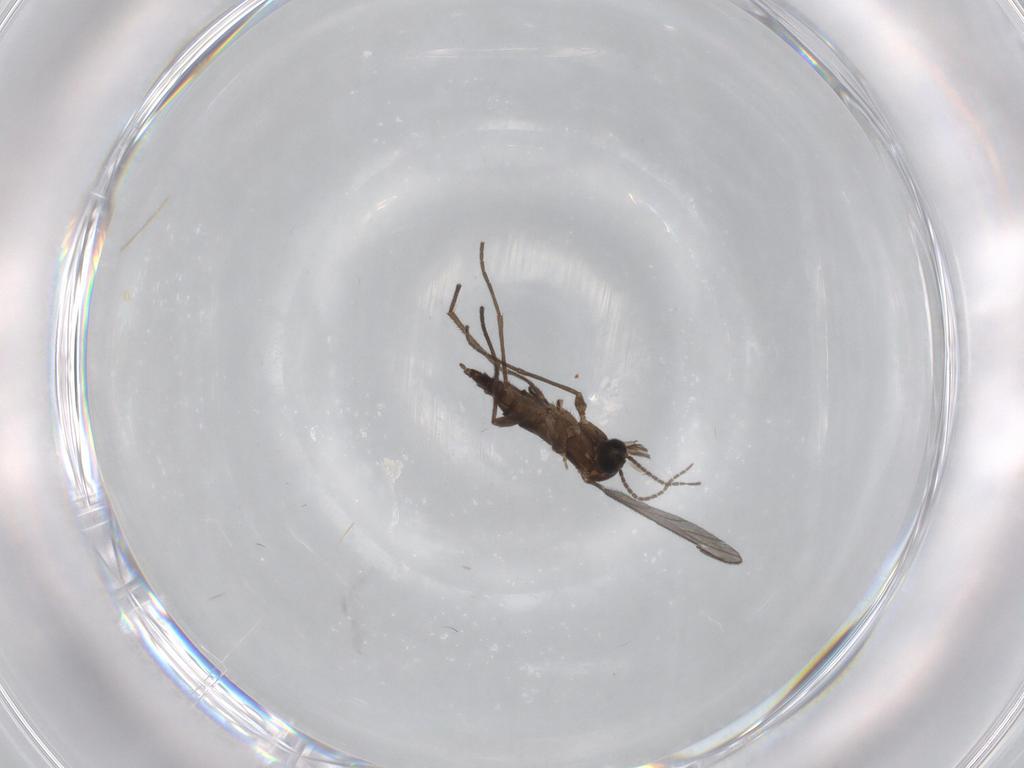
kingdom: Animalia
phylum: Arthropoda
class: Insecta
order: Diptera
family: Sciaridae
